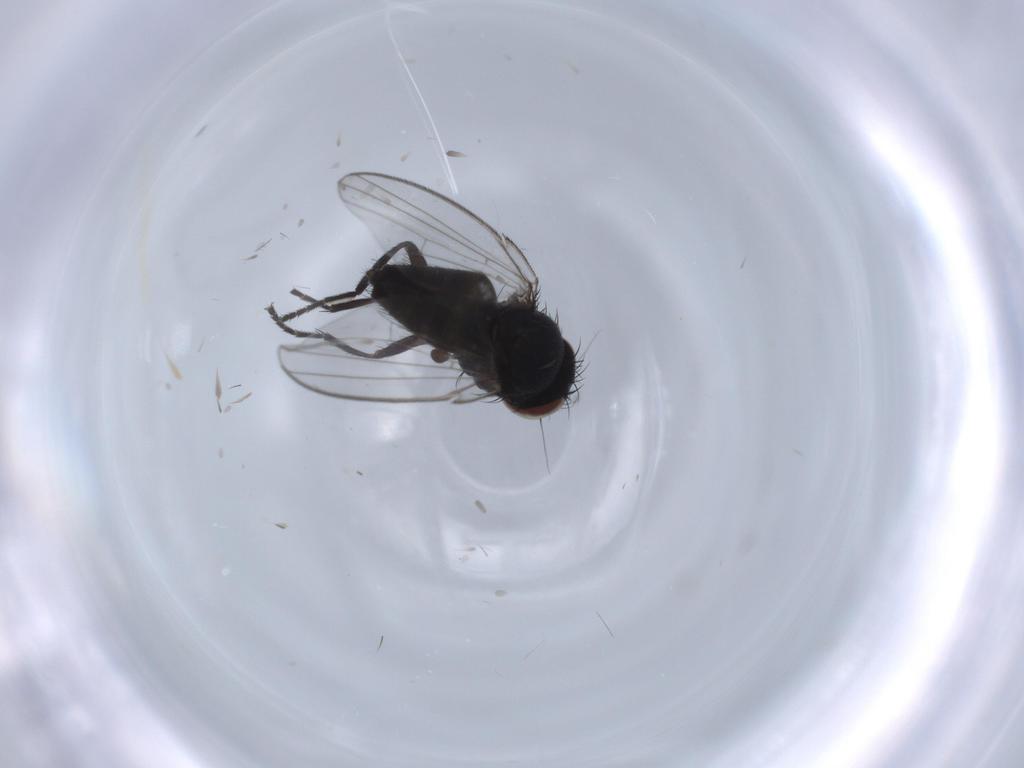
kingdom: Animalia
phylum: Arthropoda
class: Insecta
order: Diptera
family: Milichiidae
